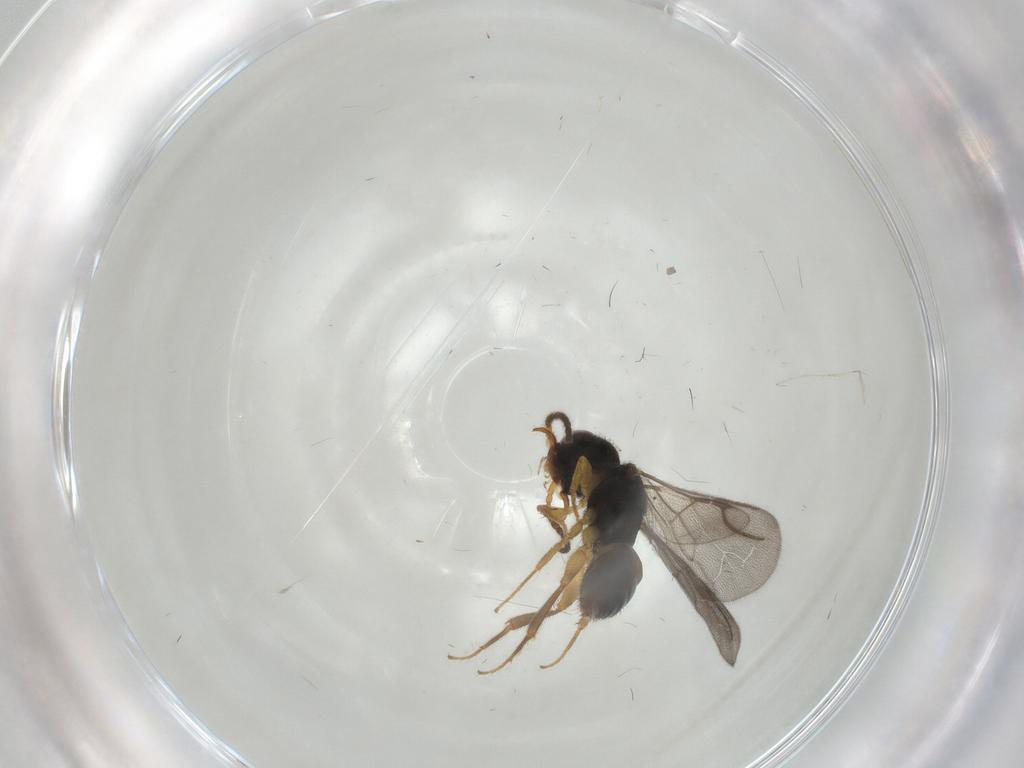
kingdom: Animalia
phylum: Arthropoda
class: Insecta
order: Hymenoptera
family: Bethylidae
